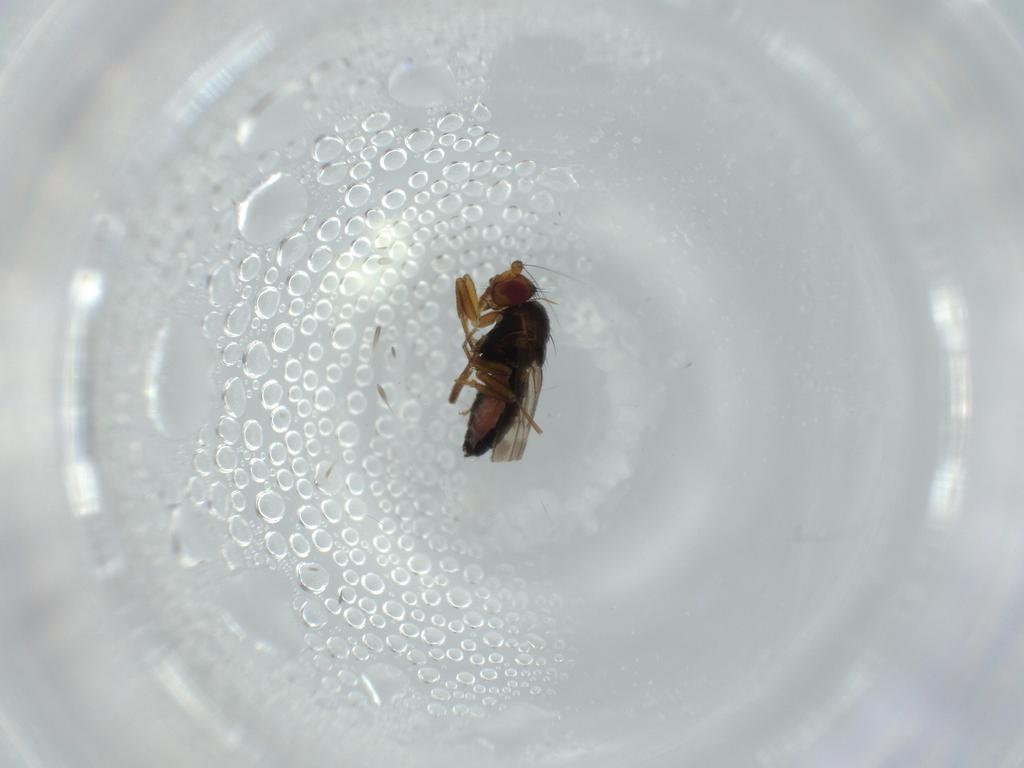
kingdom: Animalia
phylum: Arthropoda
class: Insecta
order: Diptera
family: Sphaeroceridae
